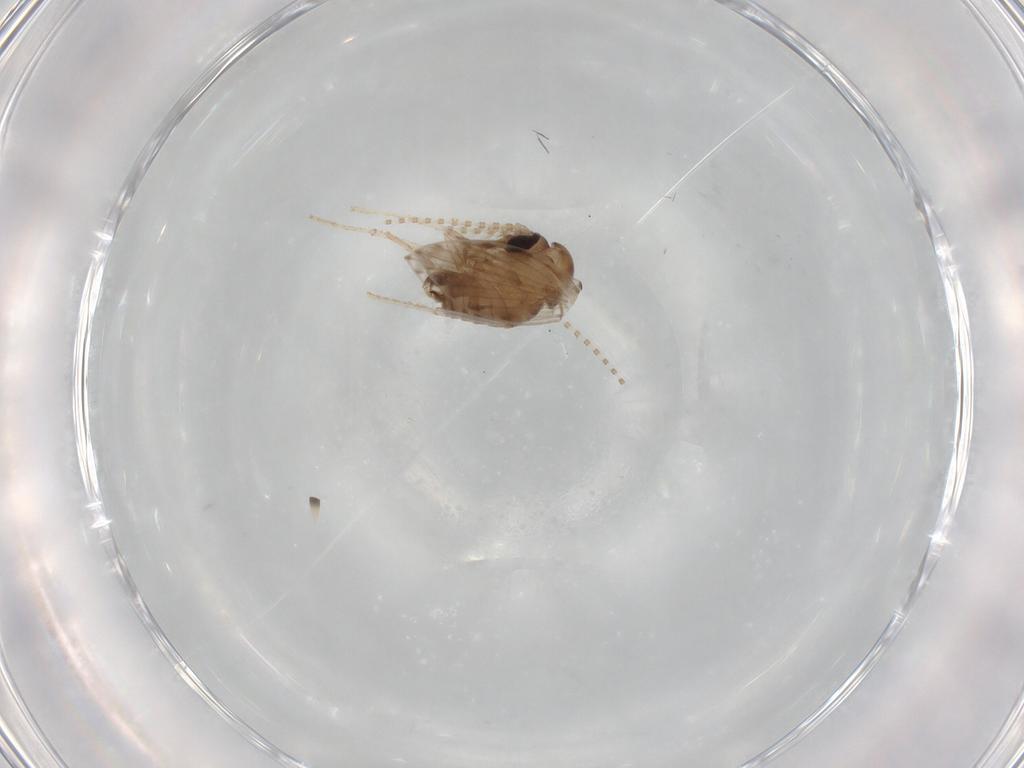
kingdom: Animalia
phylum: Arthropoda
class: Insecta
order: Diptera
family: Psychodidae
